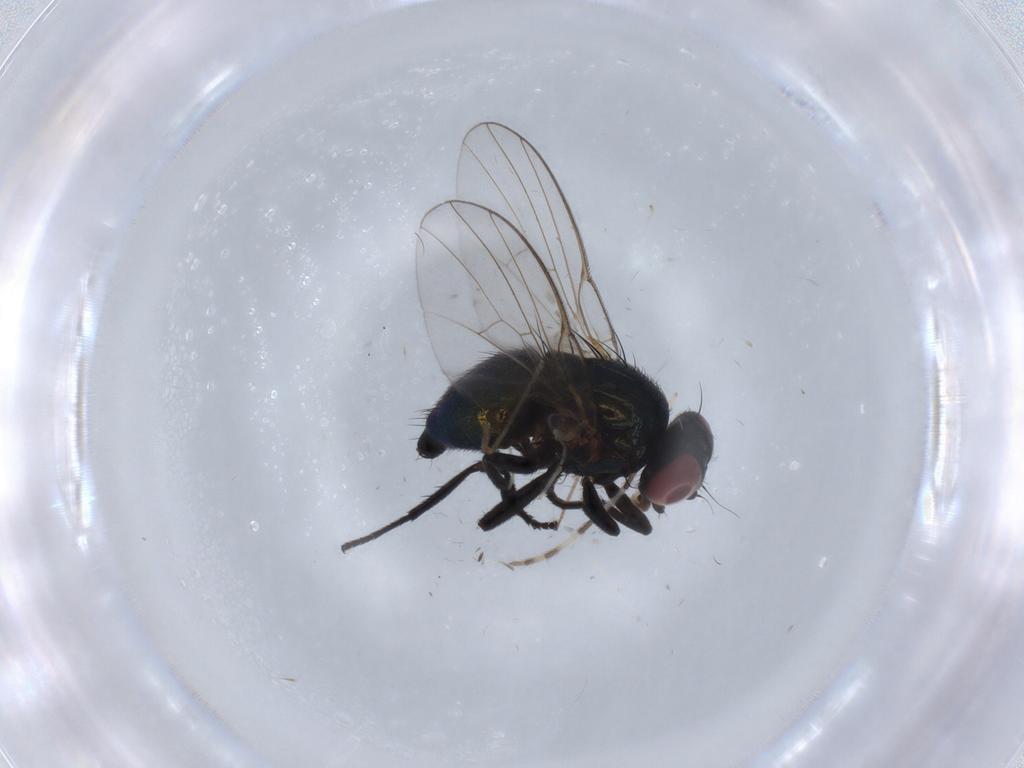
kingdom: Animalia
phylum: Arthropoda
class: Insecta
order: Diptera
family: Agromyzidae
